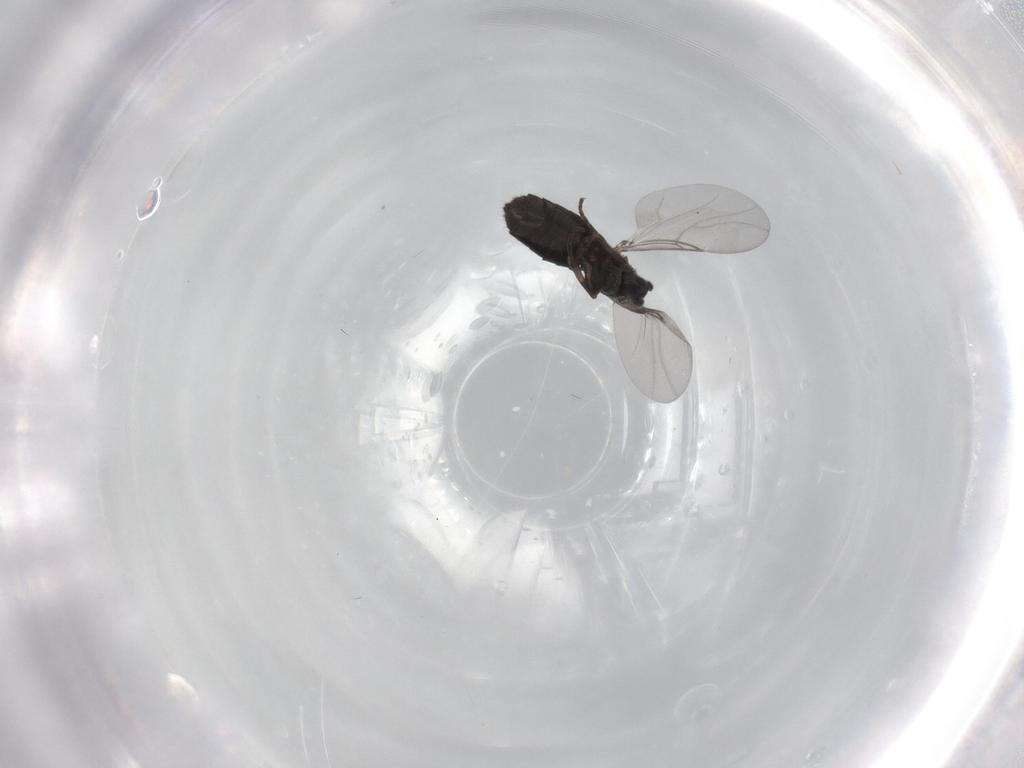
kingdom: Animalia
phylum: Arthropoda
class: Insecta
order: Diptera
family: Scatopsidae
